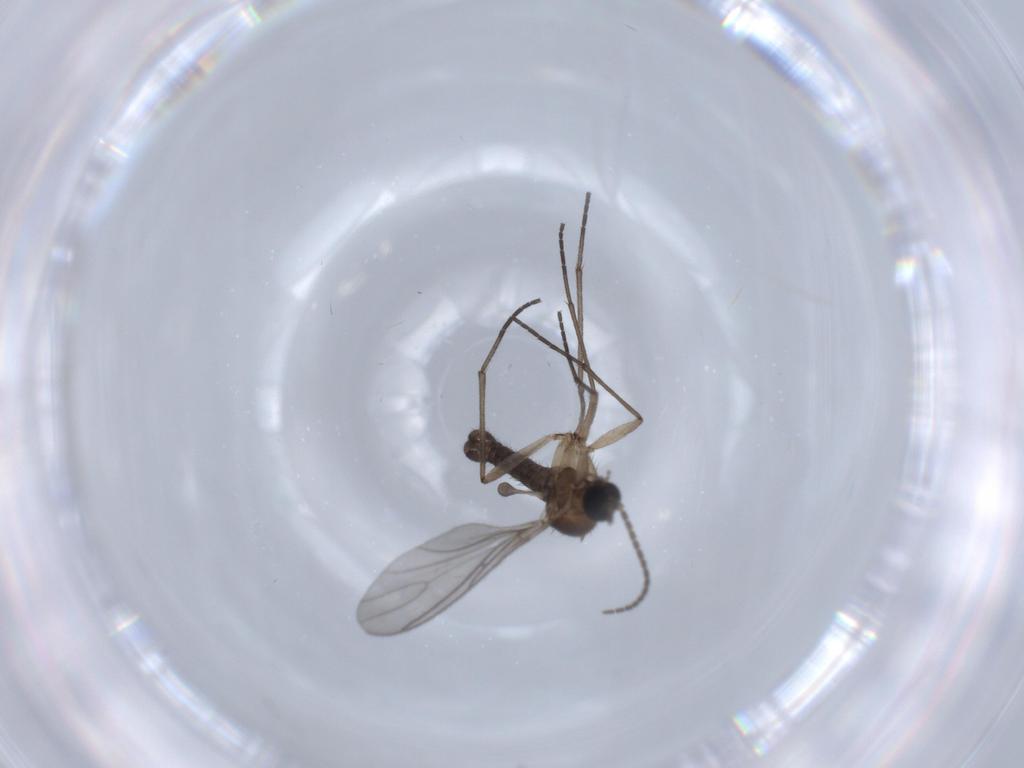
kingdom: Animalia
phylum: Arthropoda
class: Insecta
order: Diptera
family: Sciaridae
